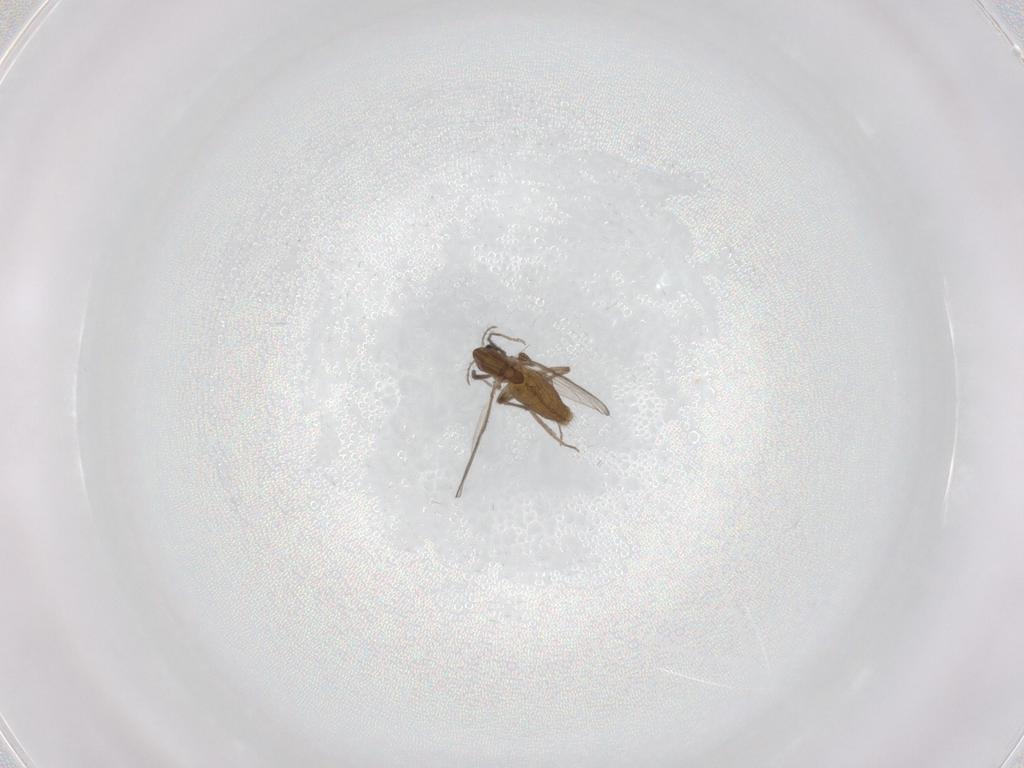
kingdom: Animalia
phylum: Arthropoda
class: Insecta
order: Diptera
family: Chironomidae
